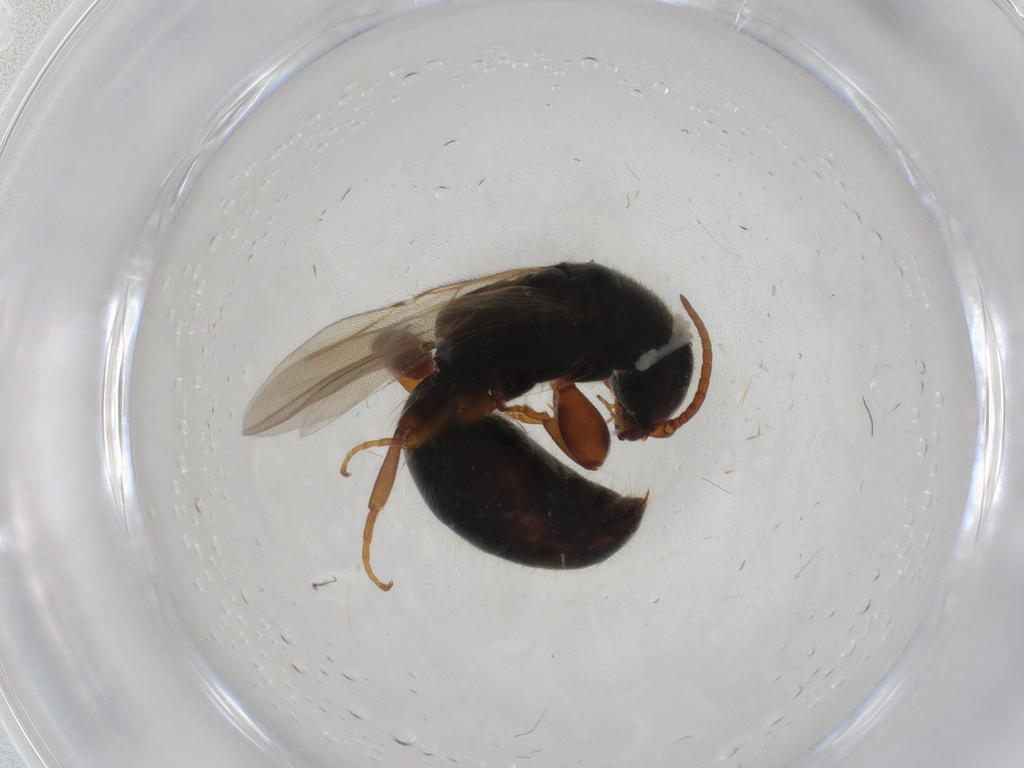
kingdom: Animalia
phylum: Arthropoda
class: Insecta
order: Hymenoptera
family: Bethylidae
